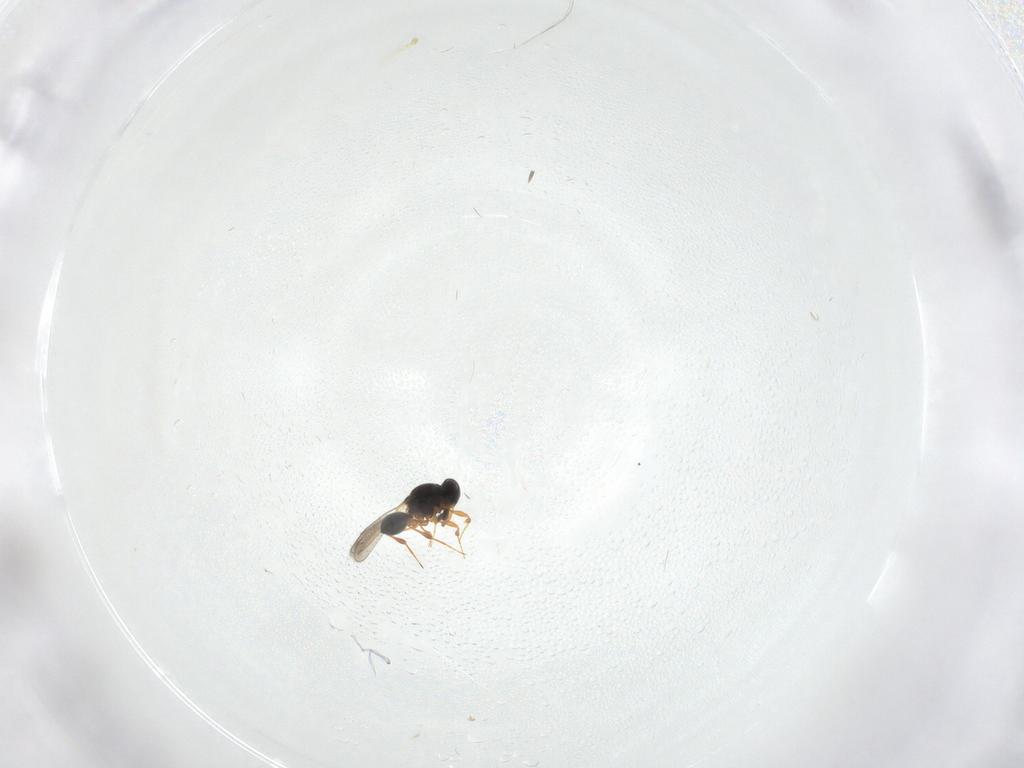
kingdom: Animalia
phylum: Arthropoda
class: Insecta
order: Hymenoptera
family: Platygastridae
